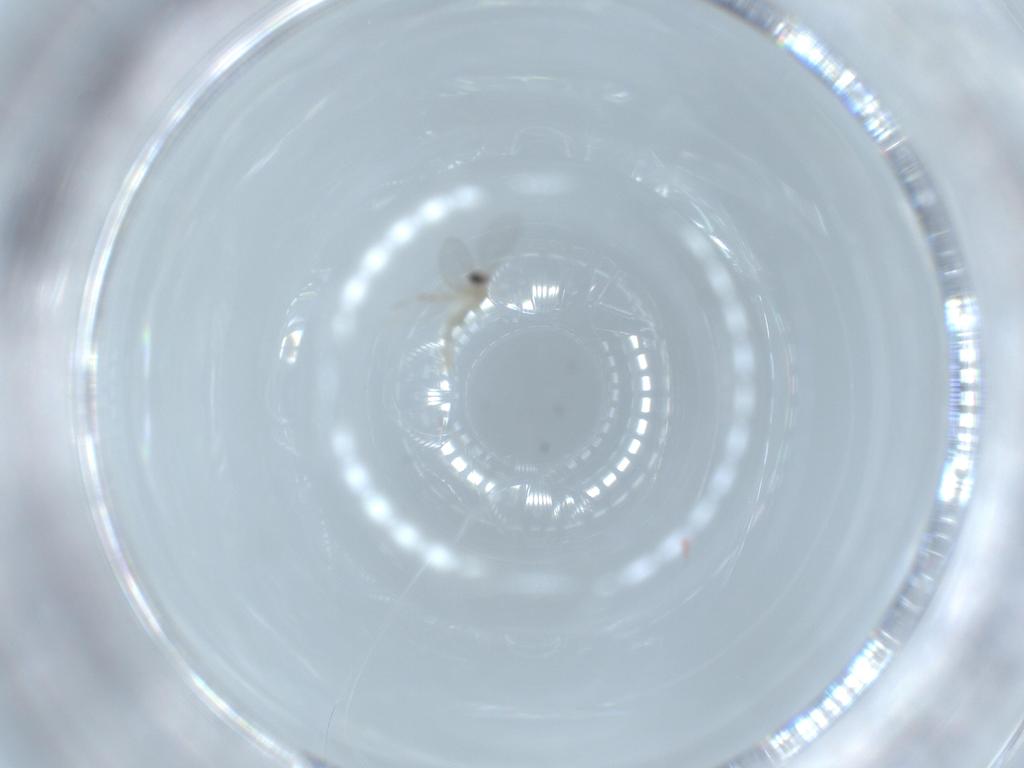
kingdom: Animalia
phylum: Arthropoda
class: Insecta
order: Diptera
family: Cecidomyiidae
